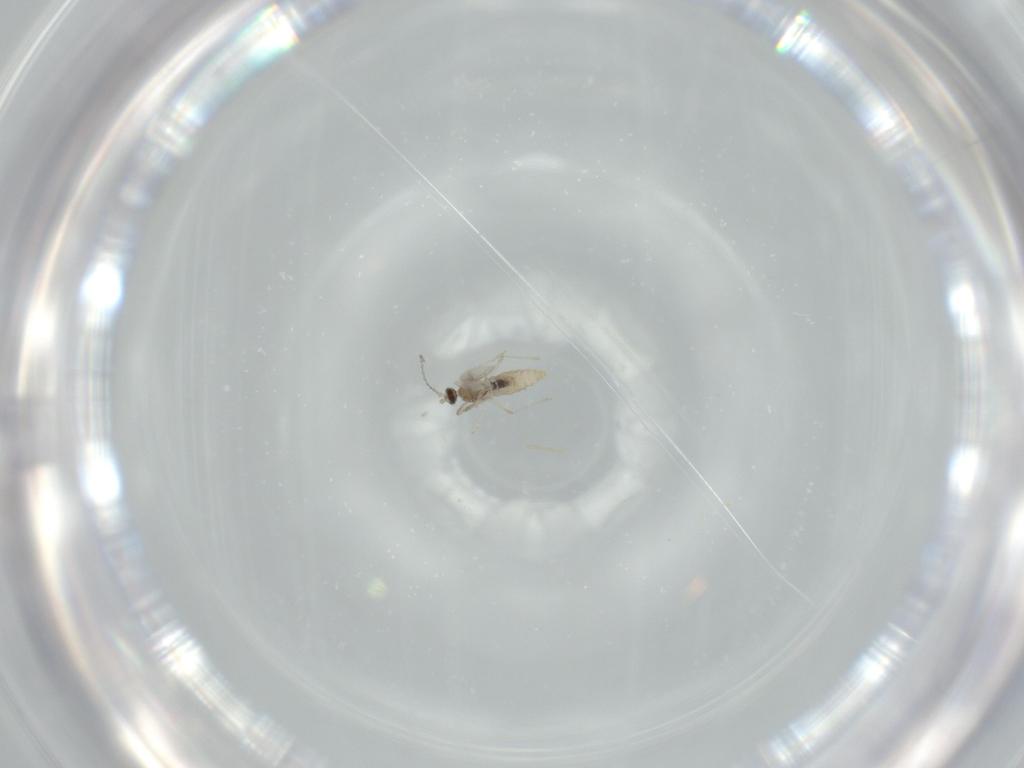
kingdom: Animalia
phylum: Arthropoda
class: Insecta
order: Diptera
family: Cecidomyiidae
